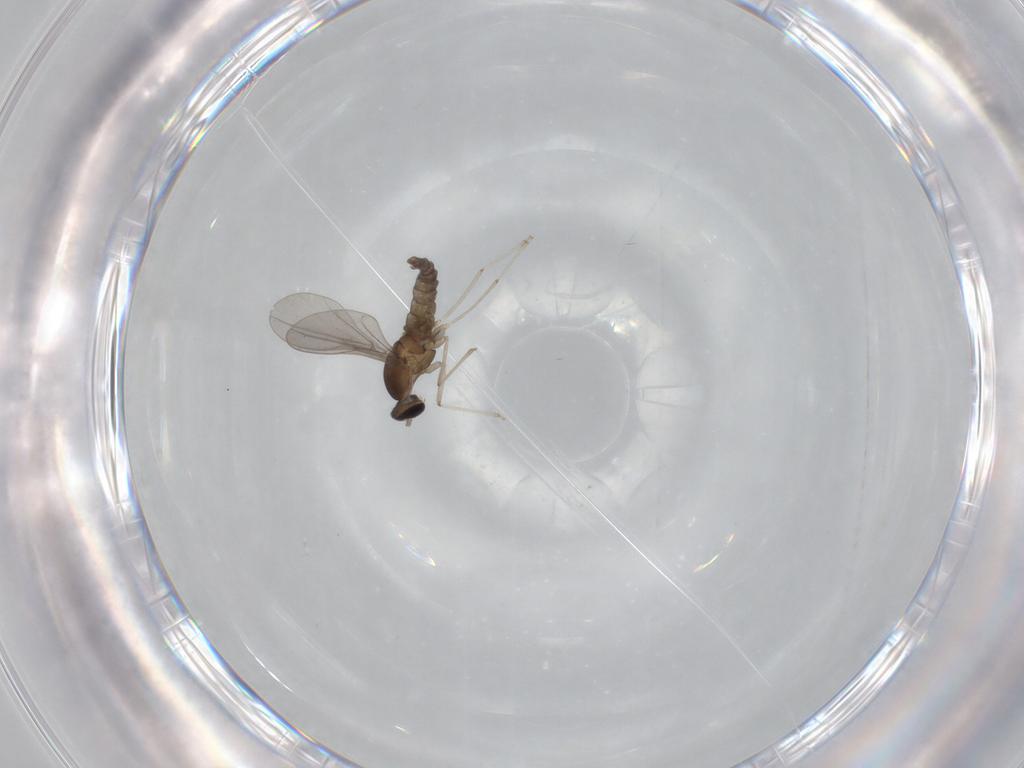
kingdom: Animalia
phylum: Arthropoda
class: Insecta
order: Diptera
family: Cecidomyiidae
